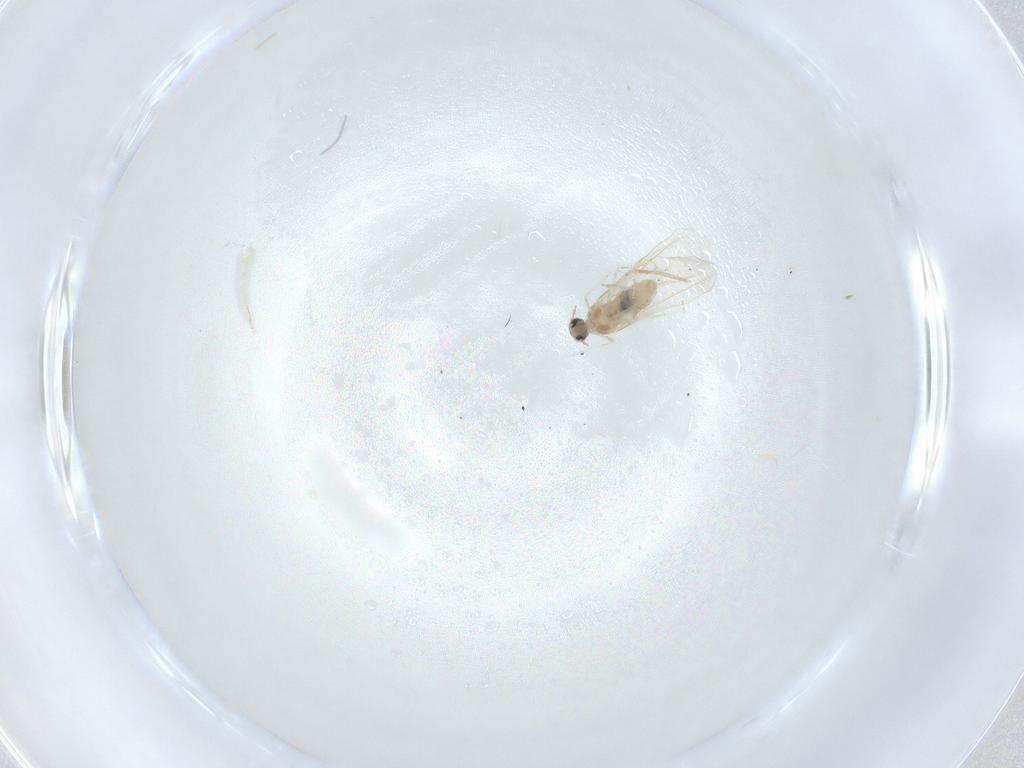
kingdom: Animalia
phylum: Arthropoda
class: Insecta
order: Diptera
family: Cecidomyiidae
